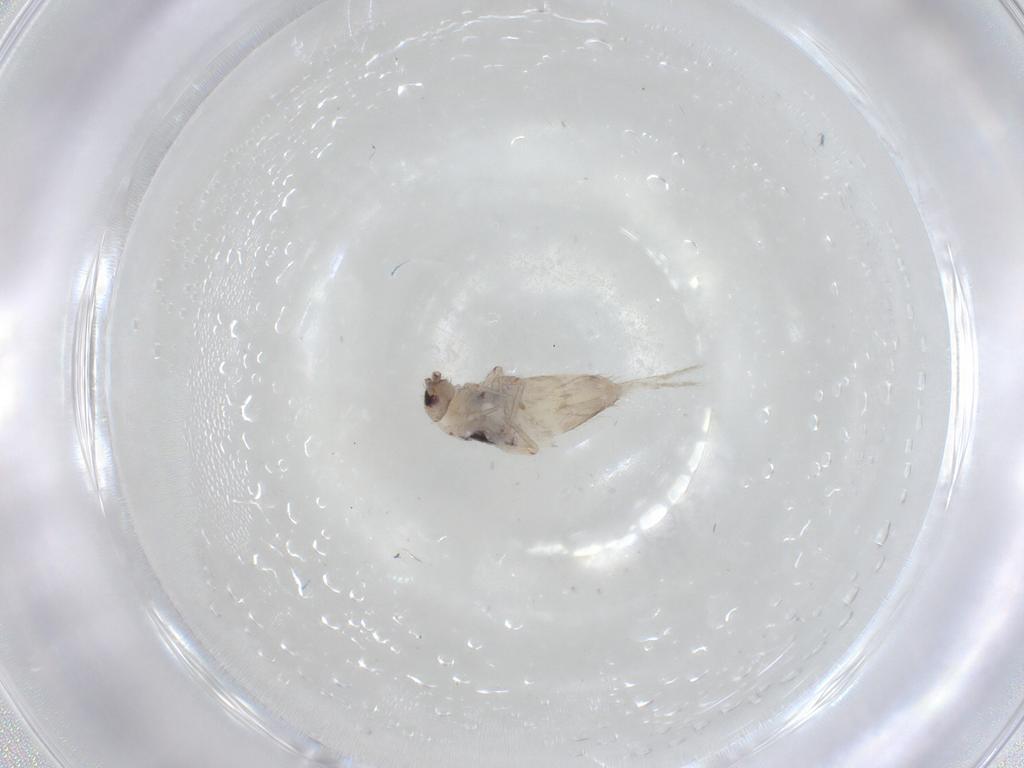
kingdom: Animalia
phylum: Arthropoda
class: Collembola
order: Entomobryomorpha
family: Entomobryidae
